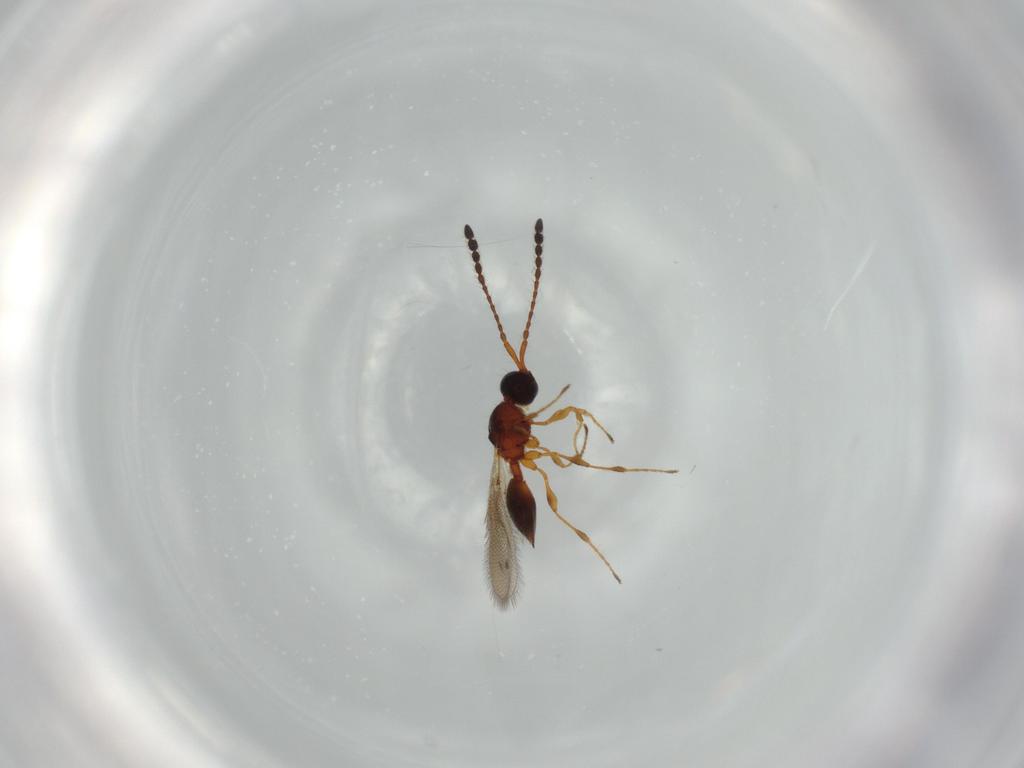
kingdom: Animalia
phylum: Arthropoda
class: Insecta
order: Hymenoptera
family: Diapriidae
